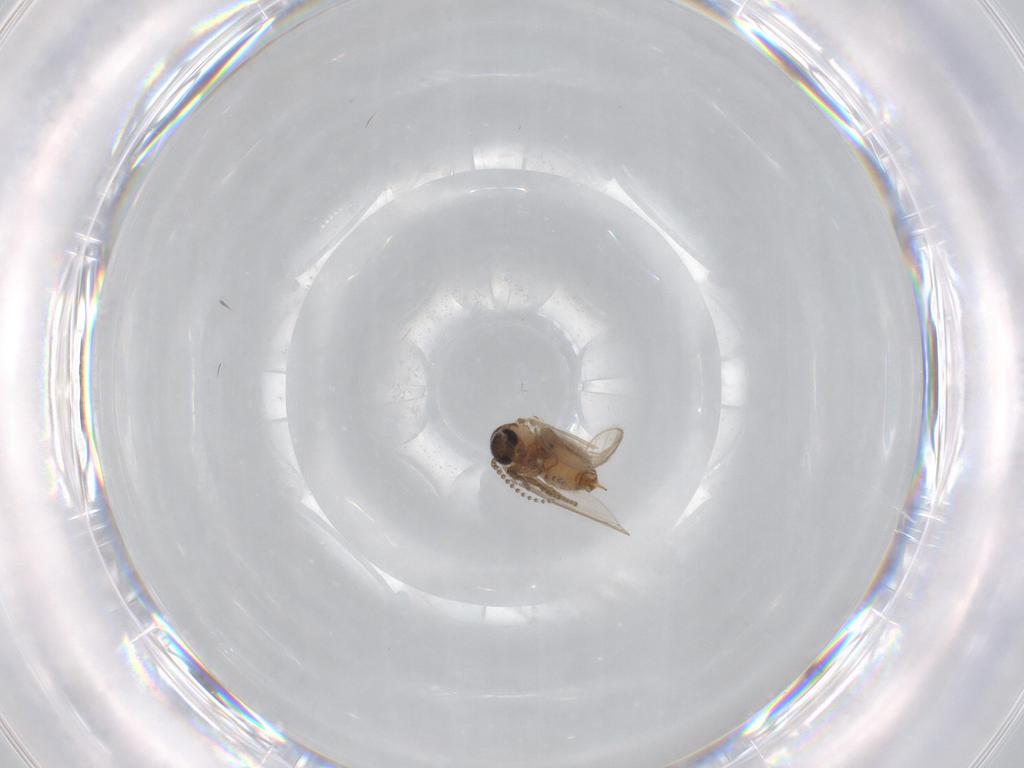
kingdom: Animalia
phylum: Arthropoda
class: Insecta
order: Diptera
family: Psychodidae
